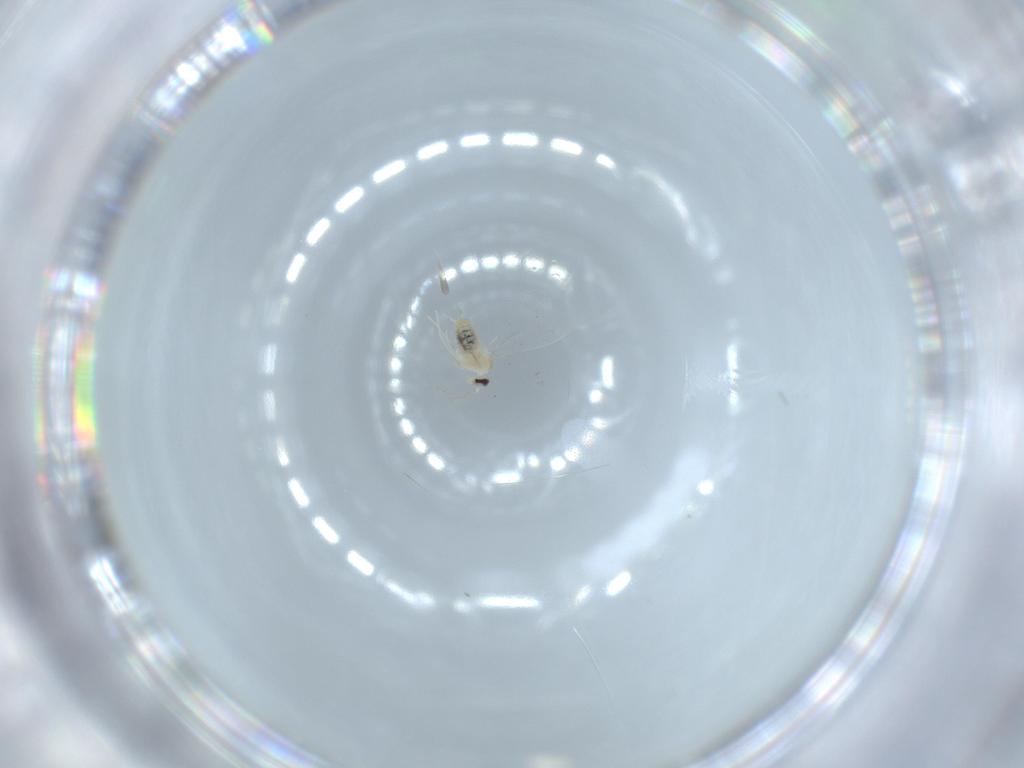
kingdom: Animalia
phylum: Arthropoda
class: Insecta
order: Diptera
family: Cecidomyiidae
